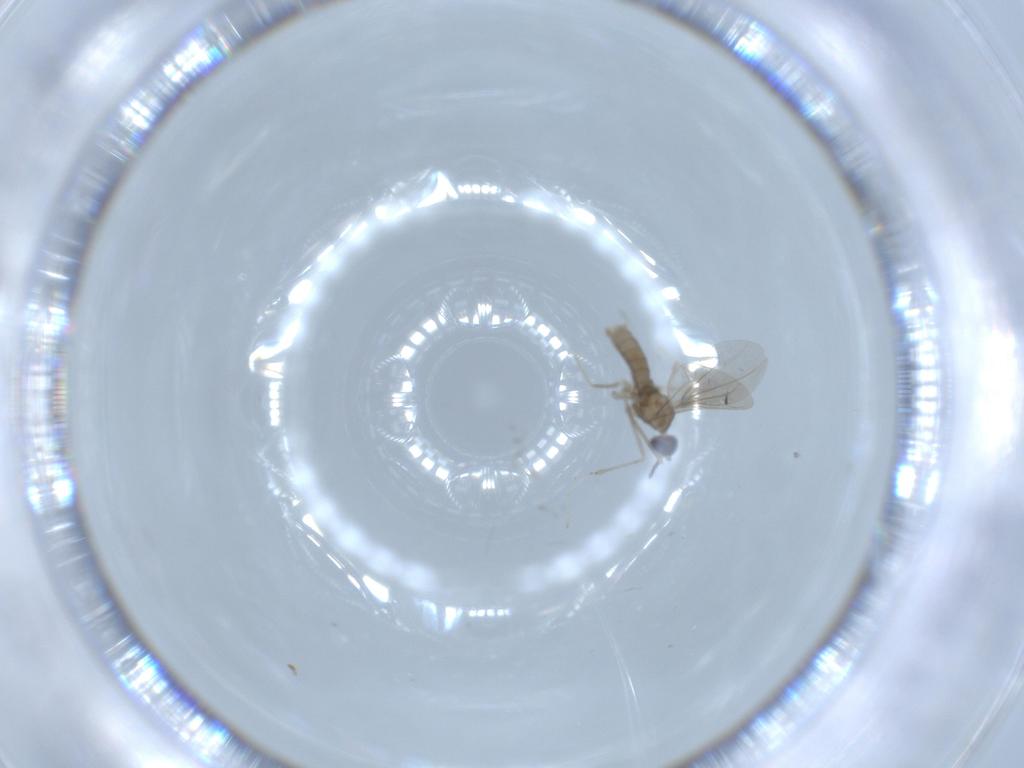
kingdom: Animalia
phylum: Arthropoda
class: Insecta
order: Diptera
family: Cecidomyiidae
